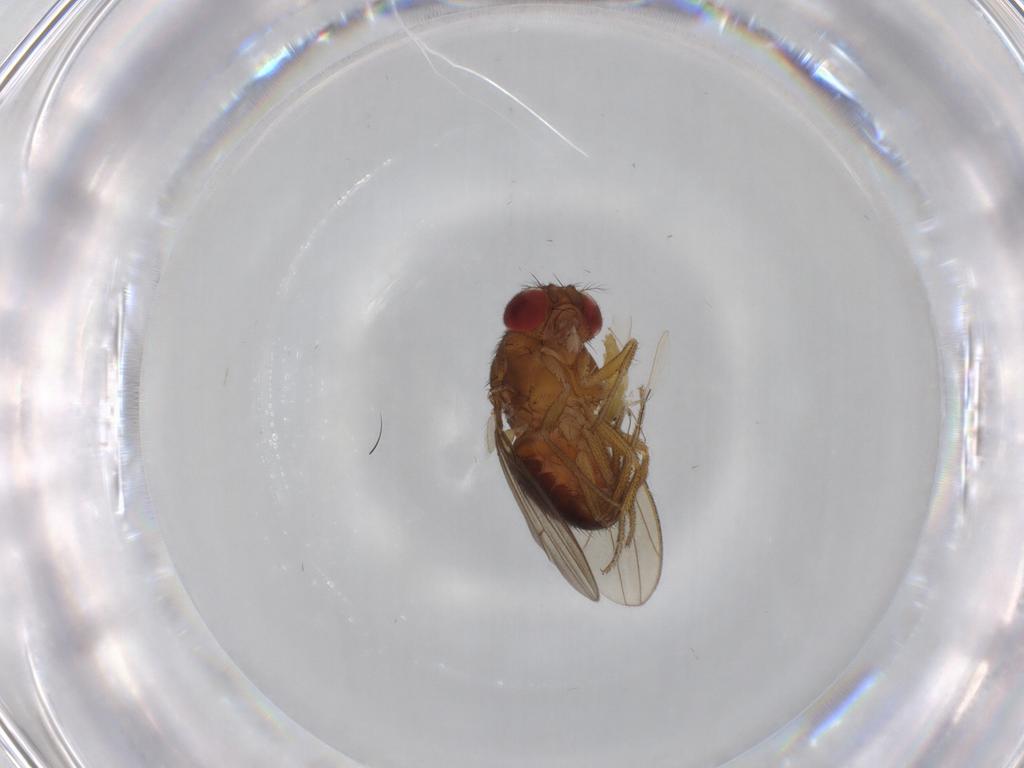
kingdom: Animalia
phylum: Arthropoda
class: Insecta
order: Diptera
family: Drosophilidae
